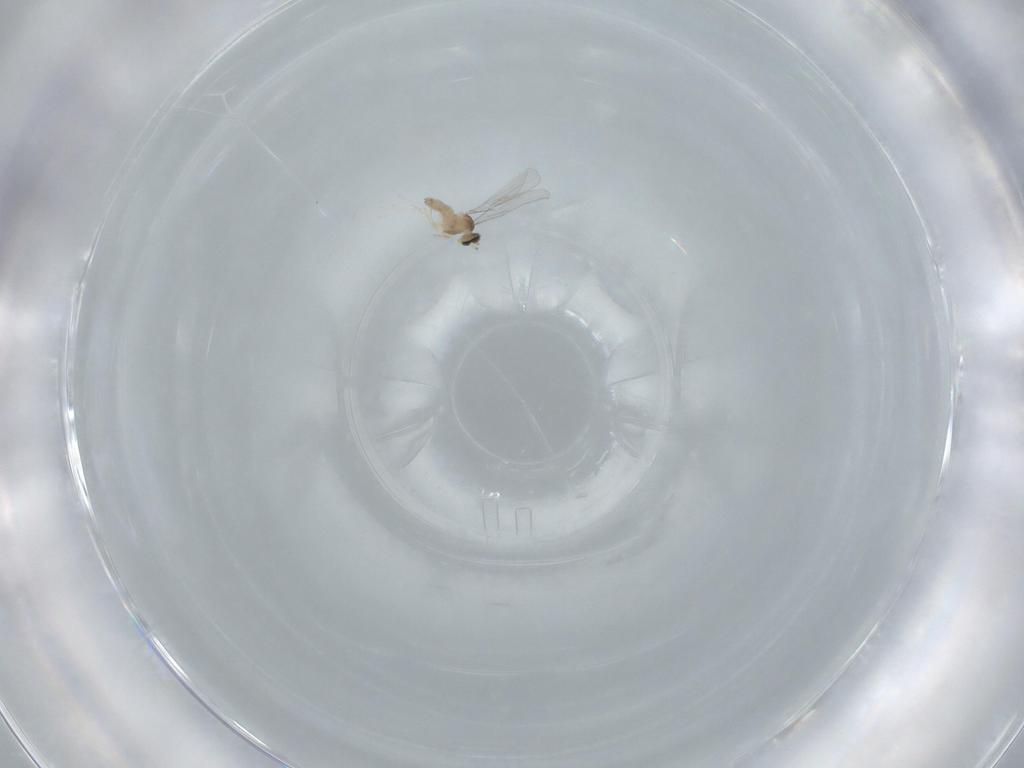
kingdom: Animalia
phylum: Arthropoda
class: Insecta
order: Diptera
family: Cecidomyiidae
